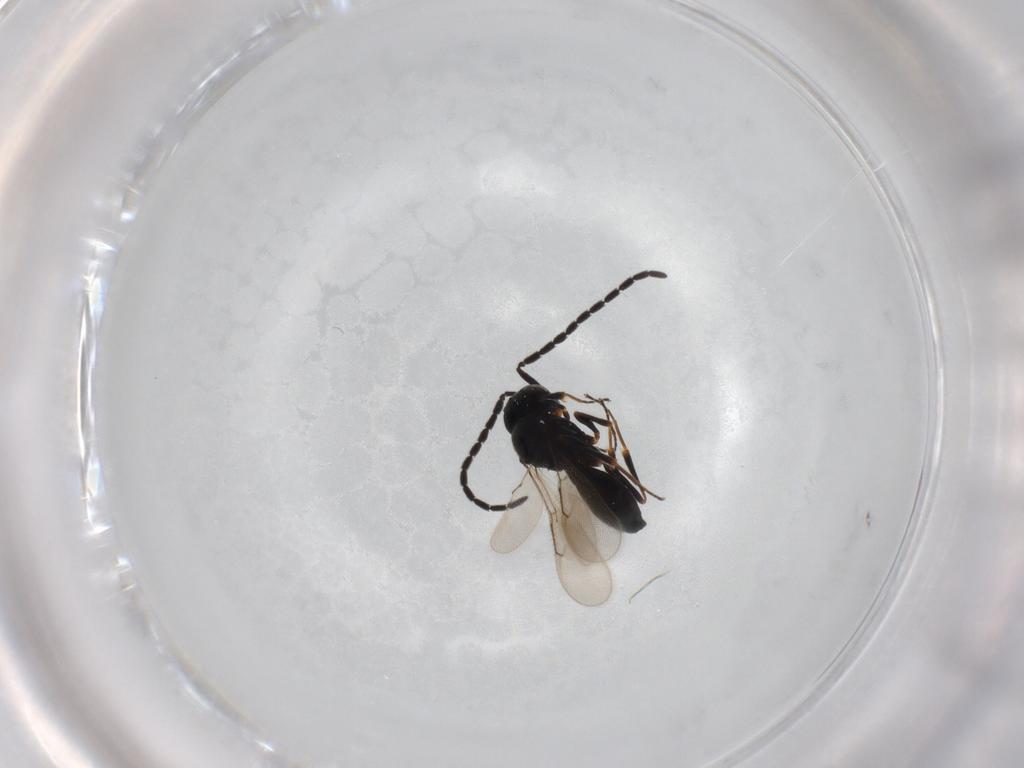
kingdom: Animalia
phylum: Arthropoda
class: Insecta
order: Hymenoptera
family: Scelionidae
